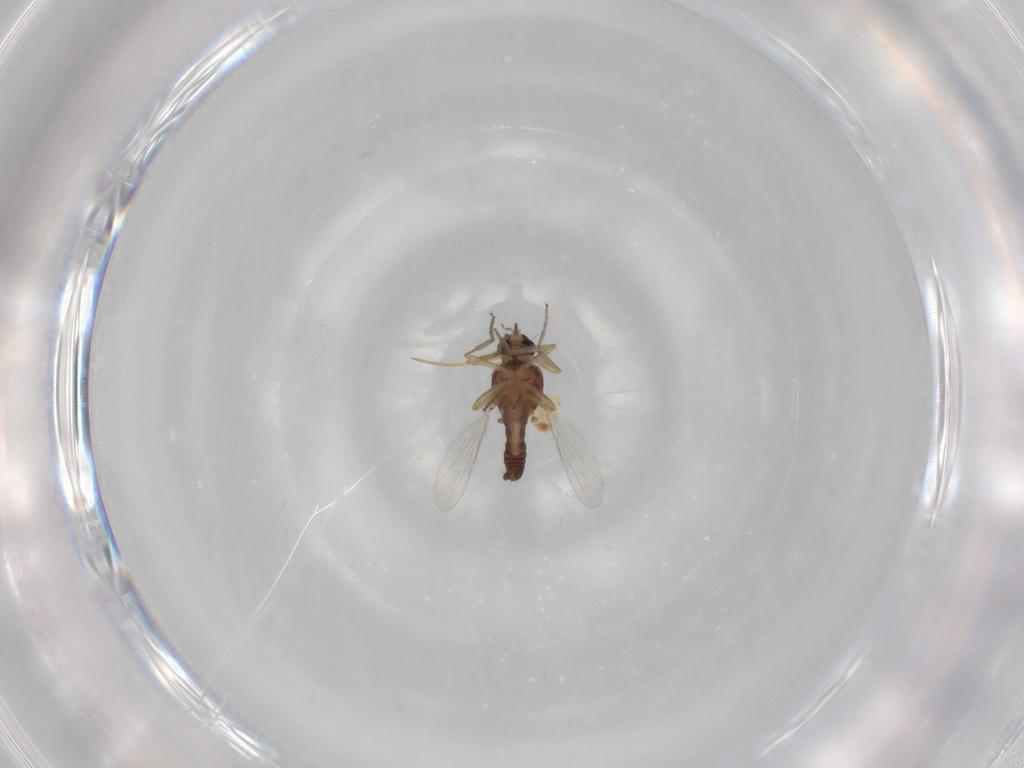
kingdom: Animalia
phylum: Arthropoda
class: Insecta
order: Diptera
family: Ceratopogonidae
